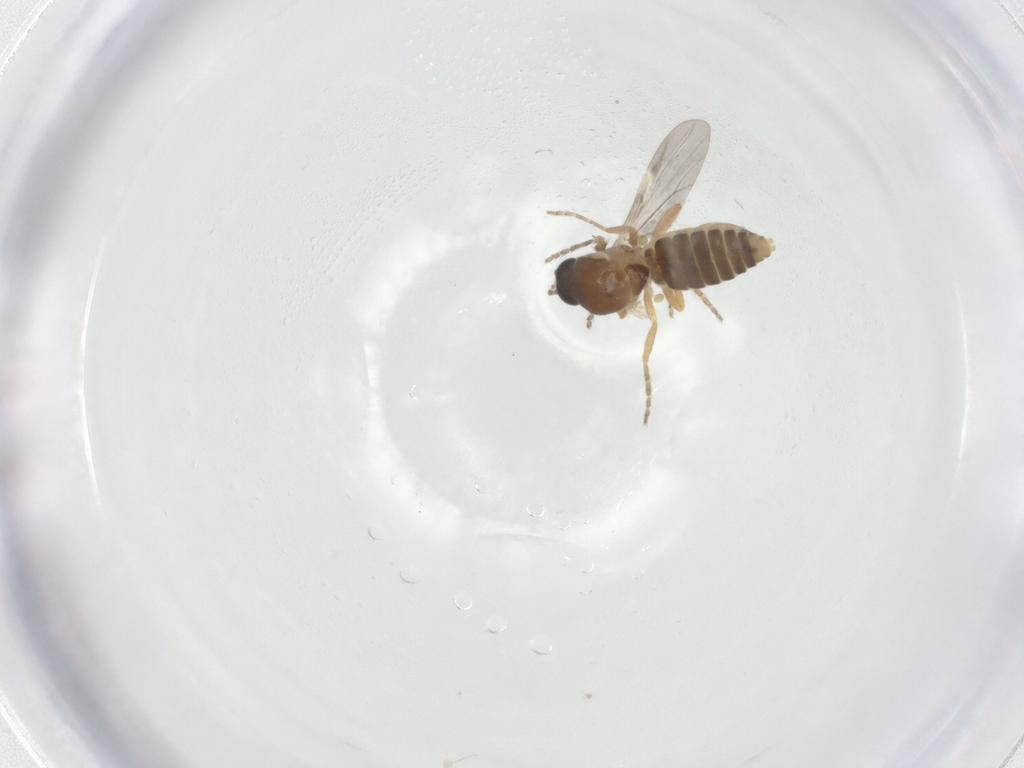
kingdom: Animalia
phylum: Arthropoda
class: Insecta
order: Diptera
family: Ceratopogonidae
